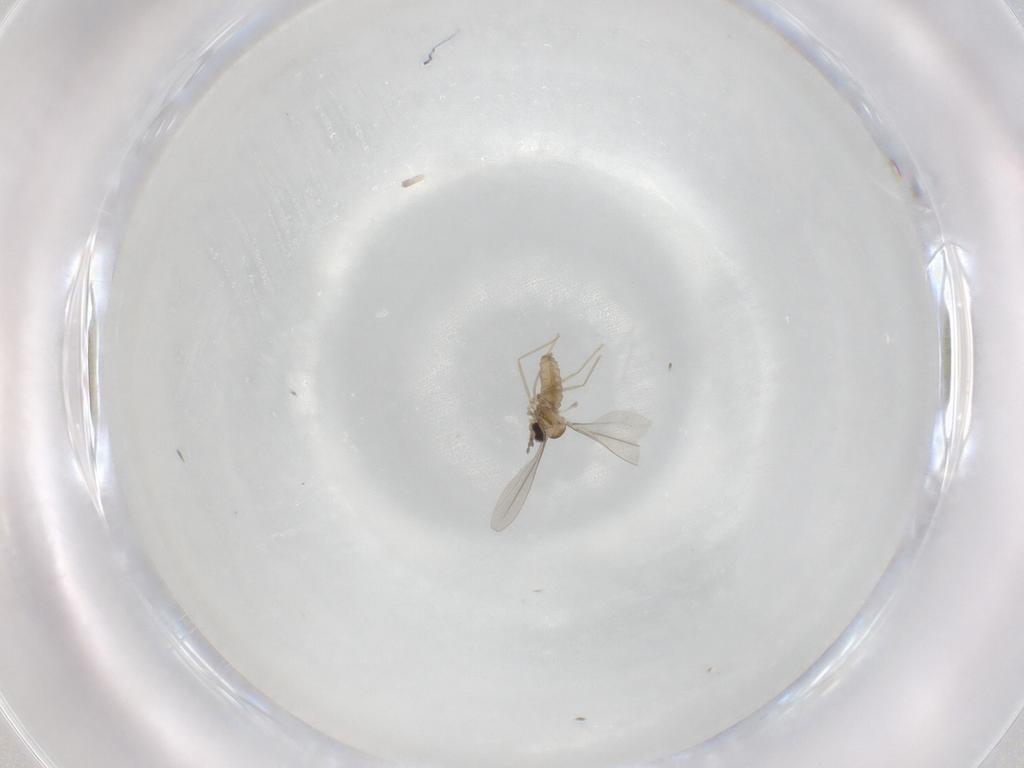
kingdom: Animalia
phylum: Arthropoda
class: Insecta
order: Diptera
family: Cecidomyiidae
